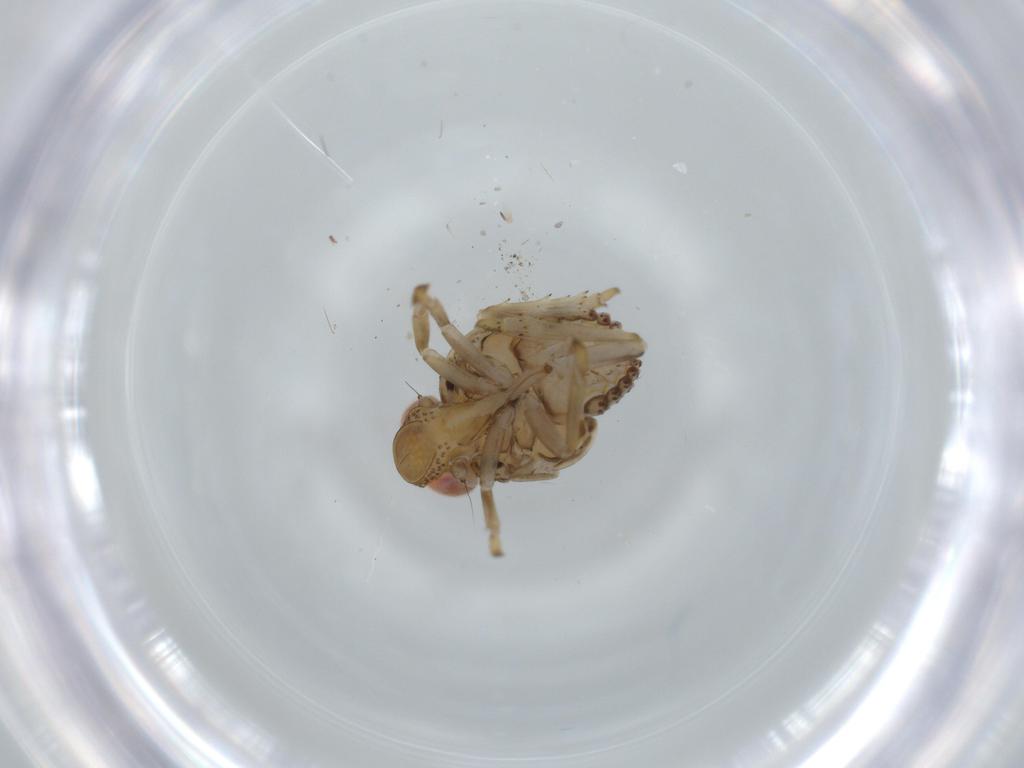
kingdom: Animalia
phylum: Arthropoda
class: Insecta
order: Hemiptera
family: Issidae
